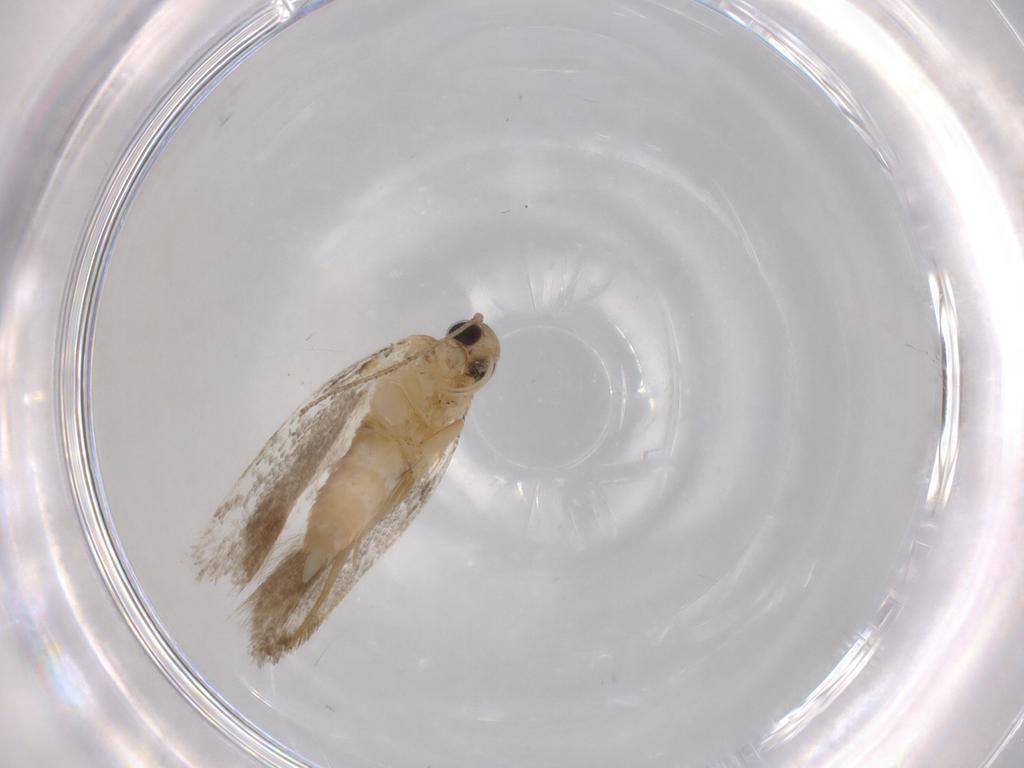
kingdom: Animalia
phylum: Arthropoda
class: Insecta
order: Lepidoptera
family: Autostichidae
